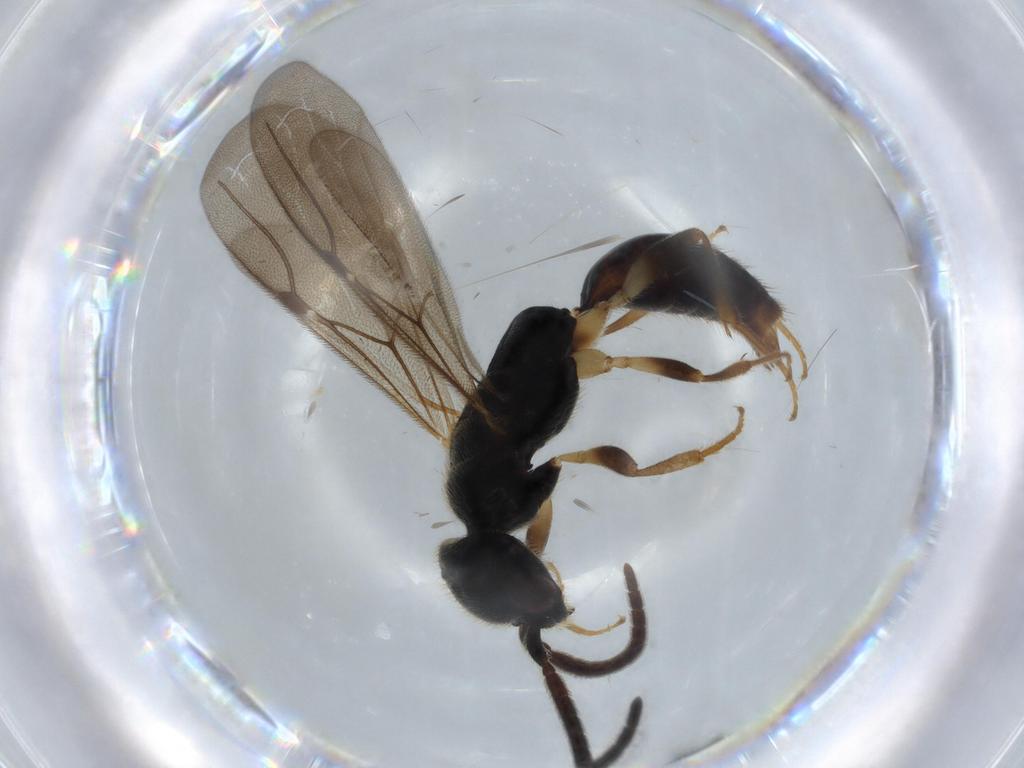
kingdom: Animalia
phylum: Arthropoda
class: Insecta
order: Hymenoptera
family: Bethylidae
